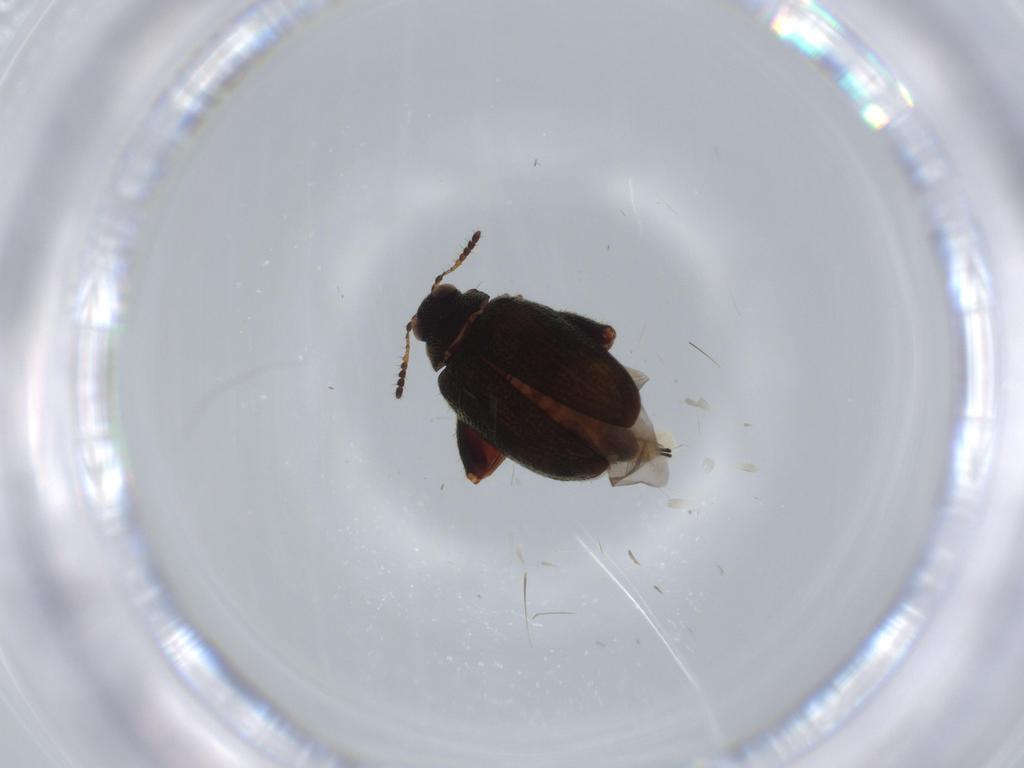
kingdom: Animalia
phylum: Arthropoda
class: Insecta
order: Coleoptera
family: Chrysomelidae
